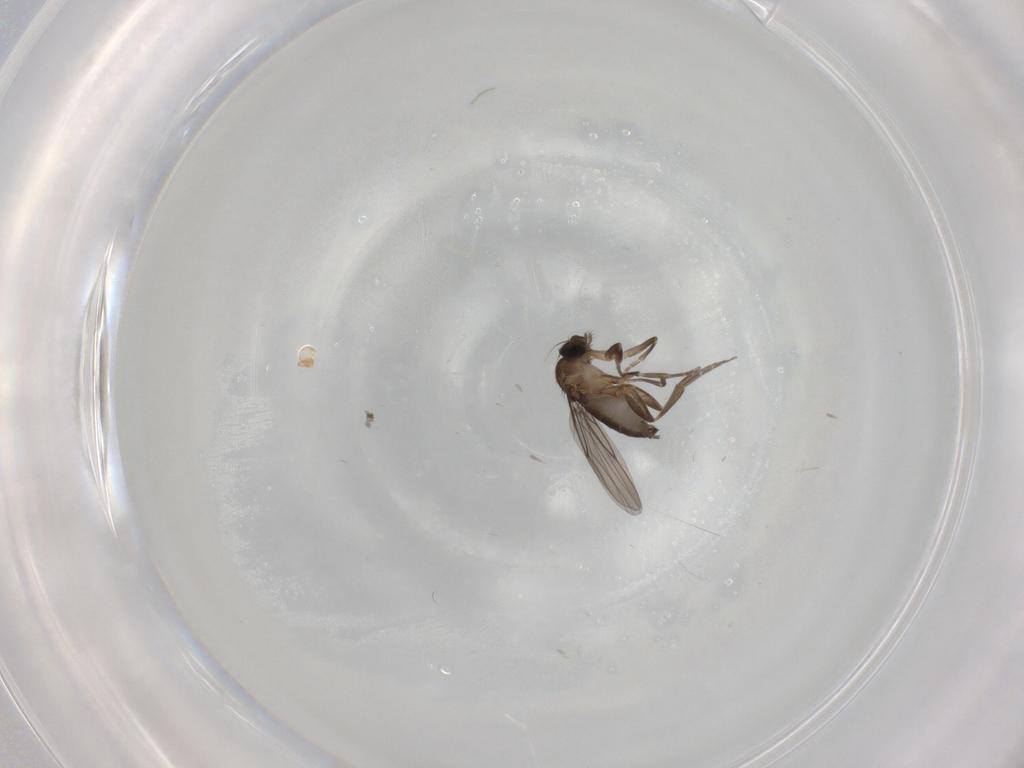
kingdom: Animalia
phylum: Arthropoda
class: Insecta
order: Diptera
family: Phoridae
